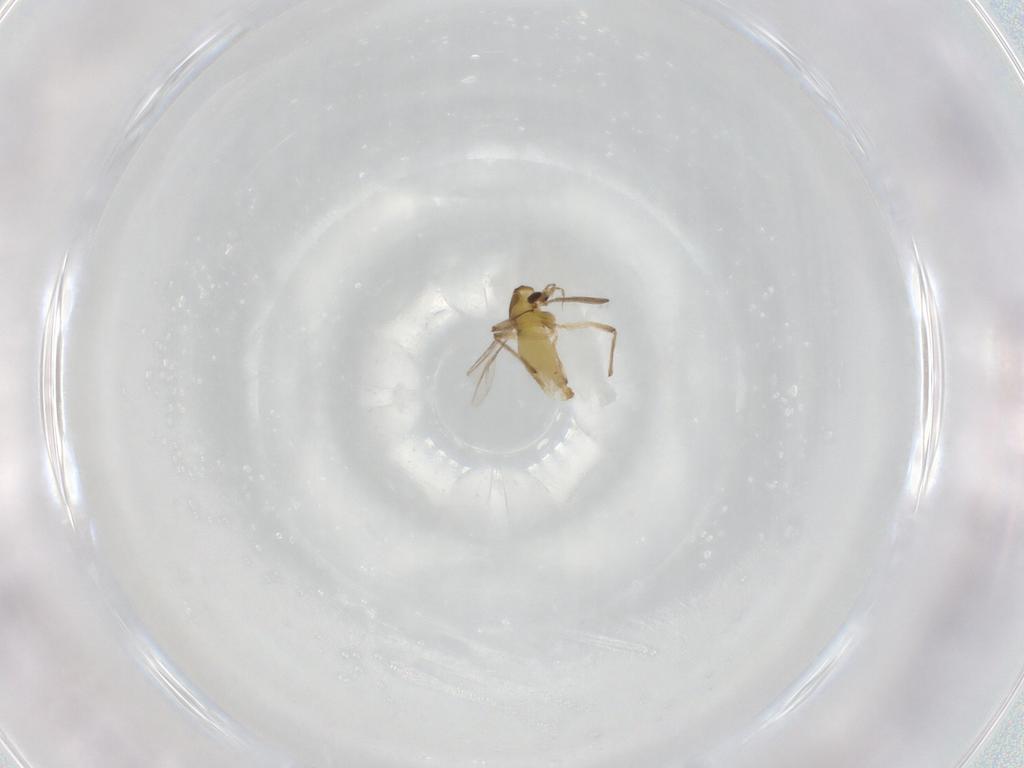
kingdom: Animalia
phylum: Arthropoda
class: Insecta
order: Diptera
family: Chironomidae
